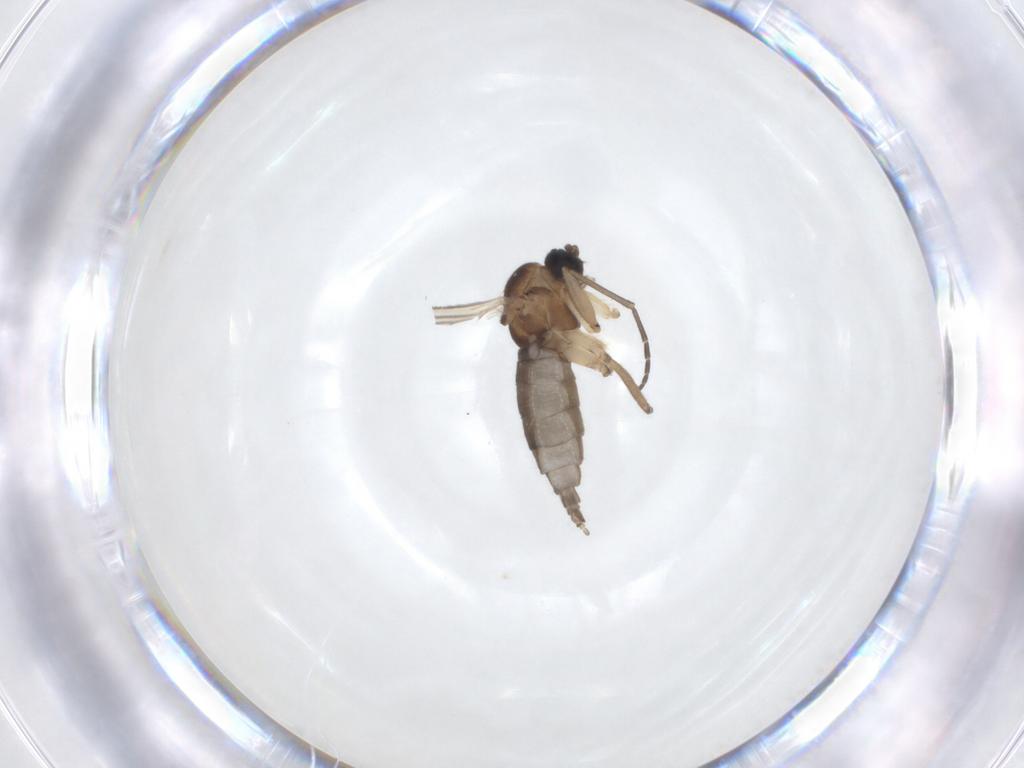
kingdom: Animalia
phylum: Arthropoda
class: Insecta
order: Diptera
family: Sciaridae
